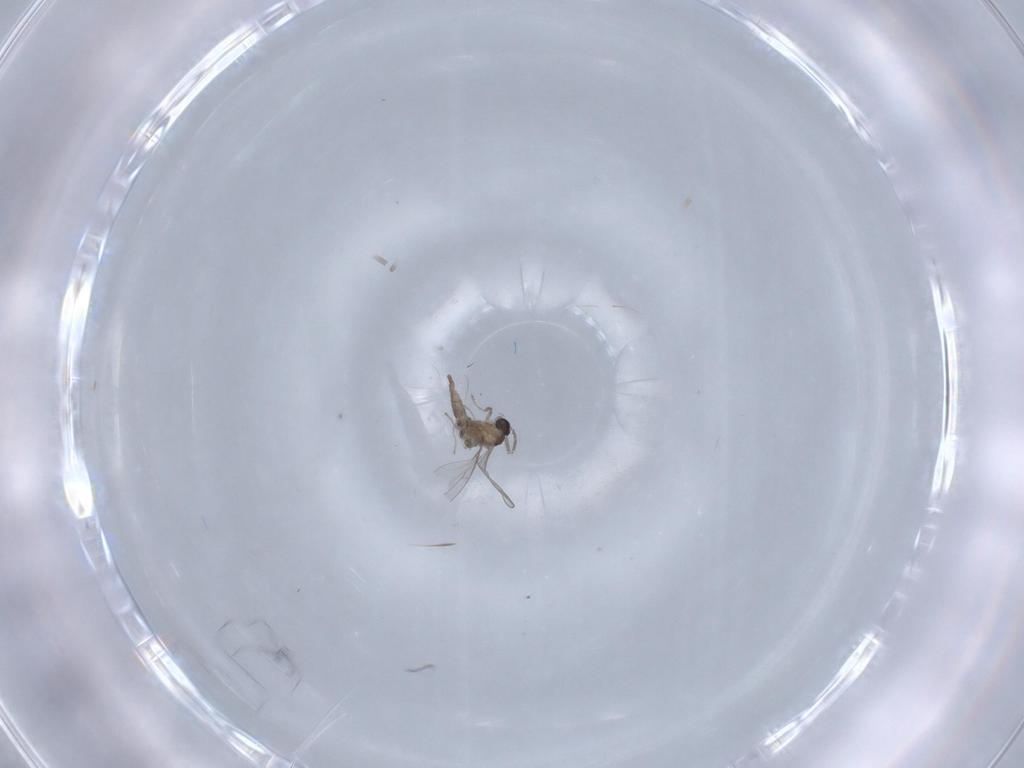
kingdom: Animalia
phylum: Arthropoda
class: Insecta
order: Diptera
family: Cecidomyiidae
